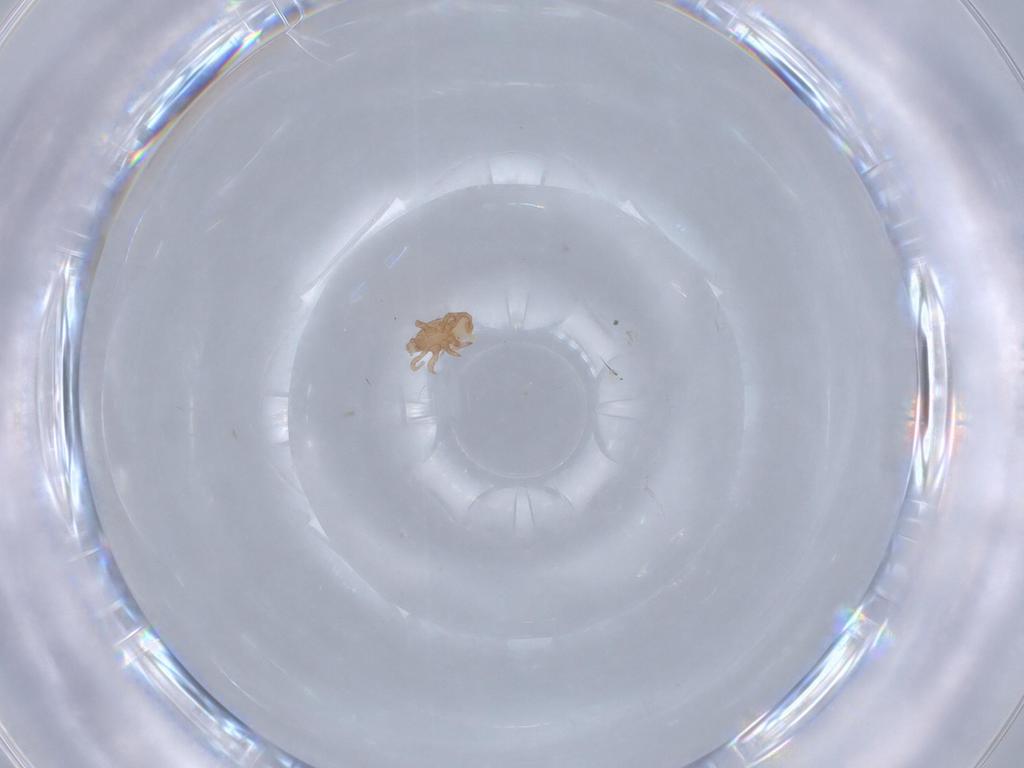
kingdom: Animalia
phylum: Arthropoda
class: Arachnida
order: Mesostigmata
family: Halolaelapidae
